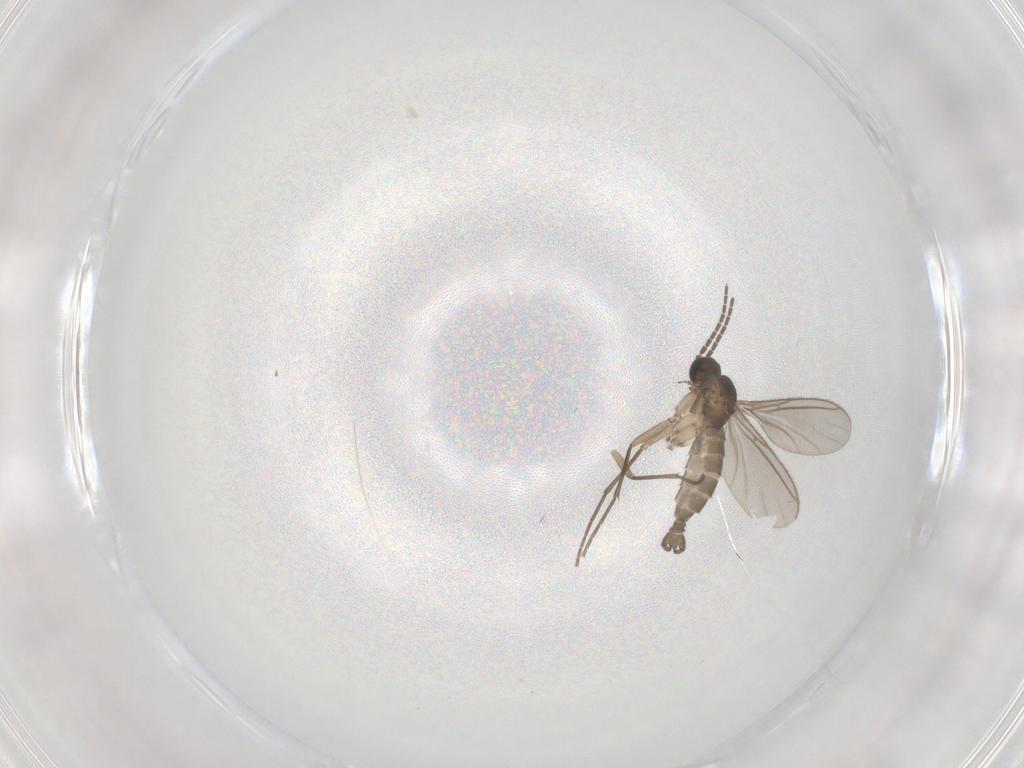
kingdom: Animalia
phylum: Arthropoda
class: Insecta
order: Diptera
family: Sciaridae
